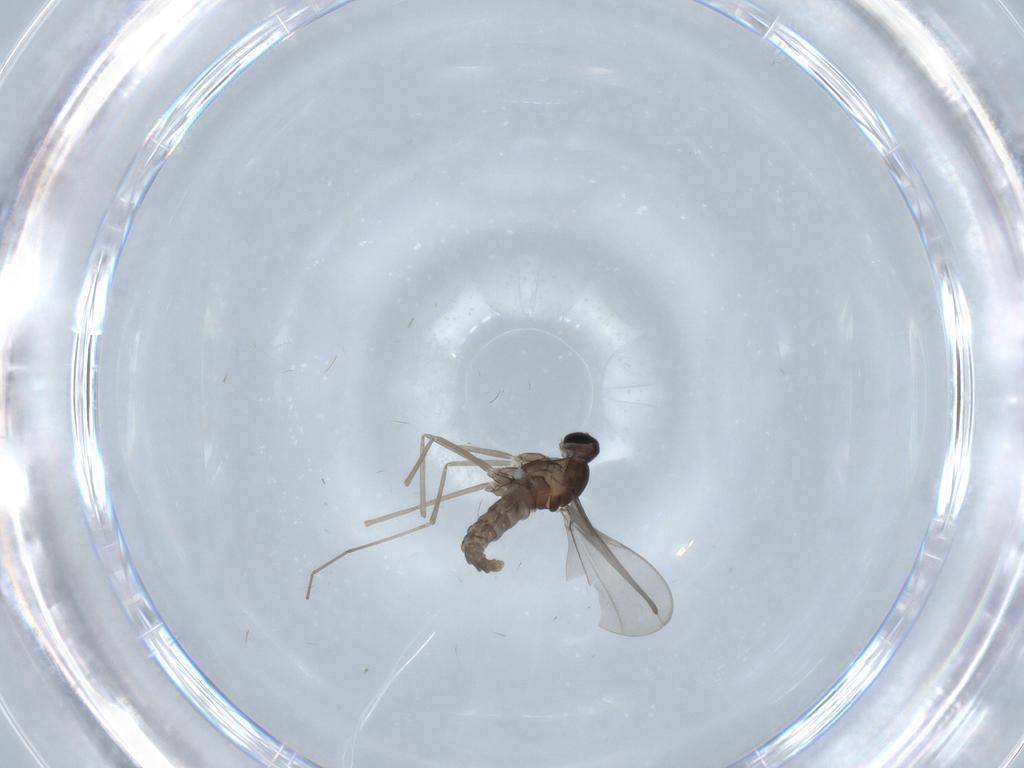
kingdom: Animalia
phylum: Arthropoda
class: Insecta
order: Diptera
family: Cecidomyiidae
